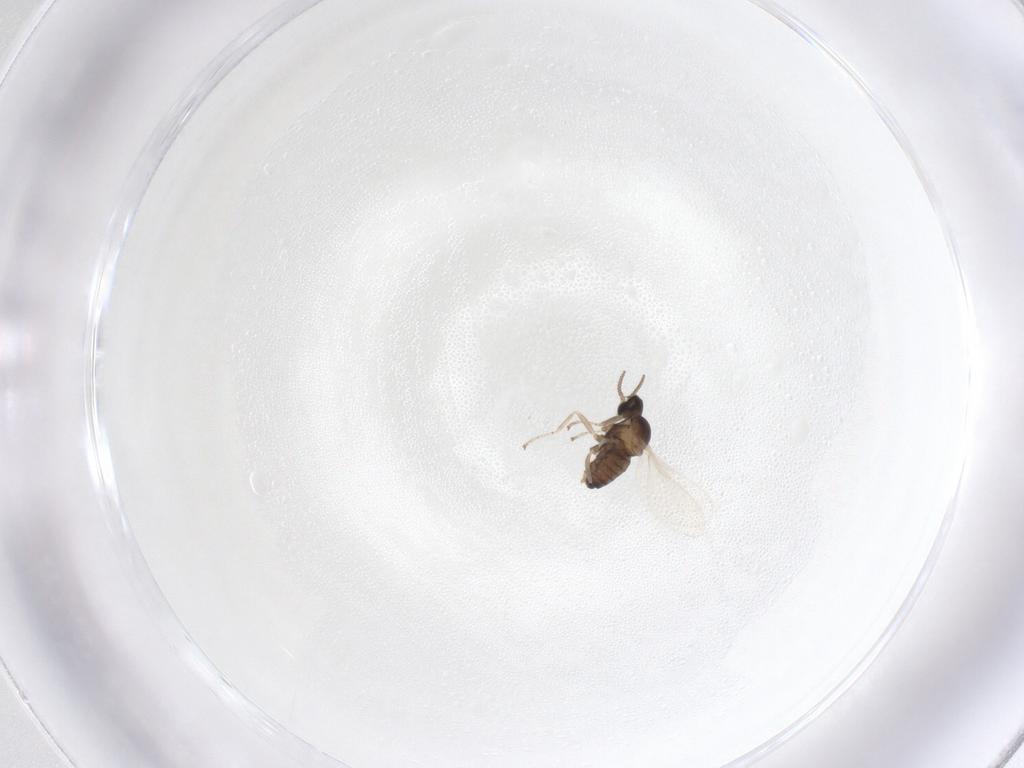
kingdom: Animalia
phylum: Arthropoda
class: Insecta
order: Diptera
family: Cecidomyiidae
